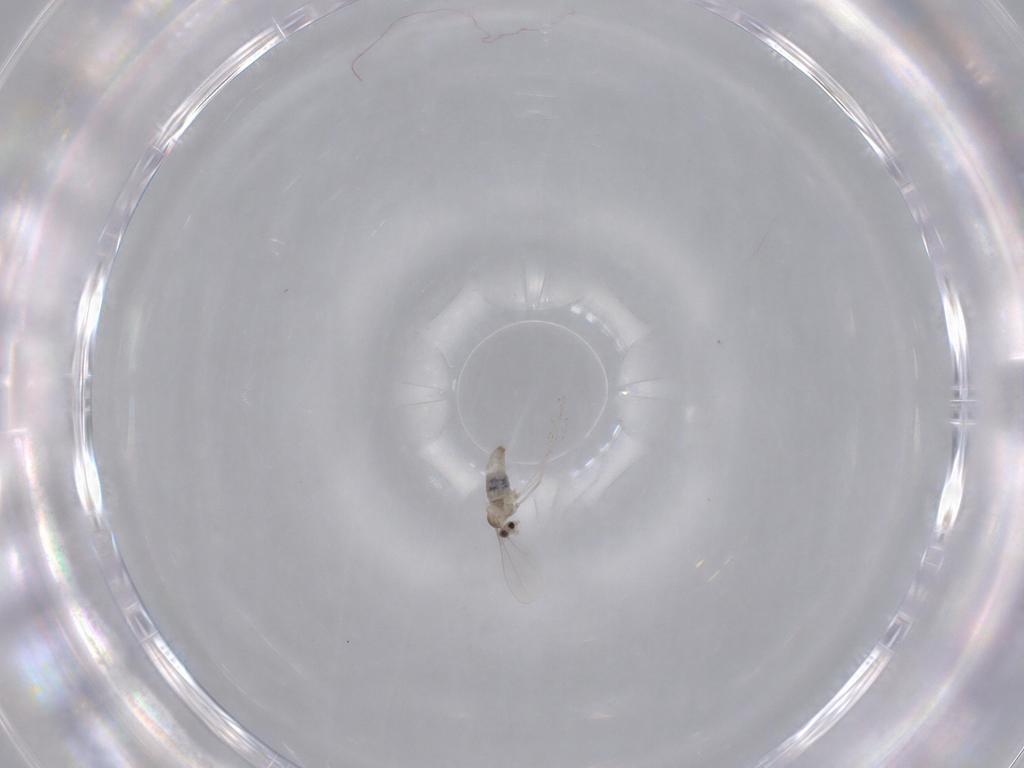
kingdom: Animalia
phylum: Arthropoda
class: Insecta
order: Diptera
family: Cecidomyiidae
